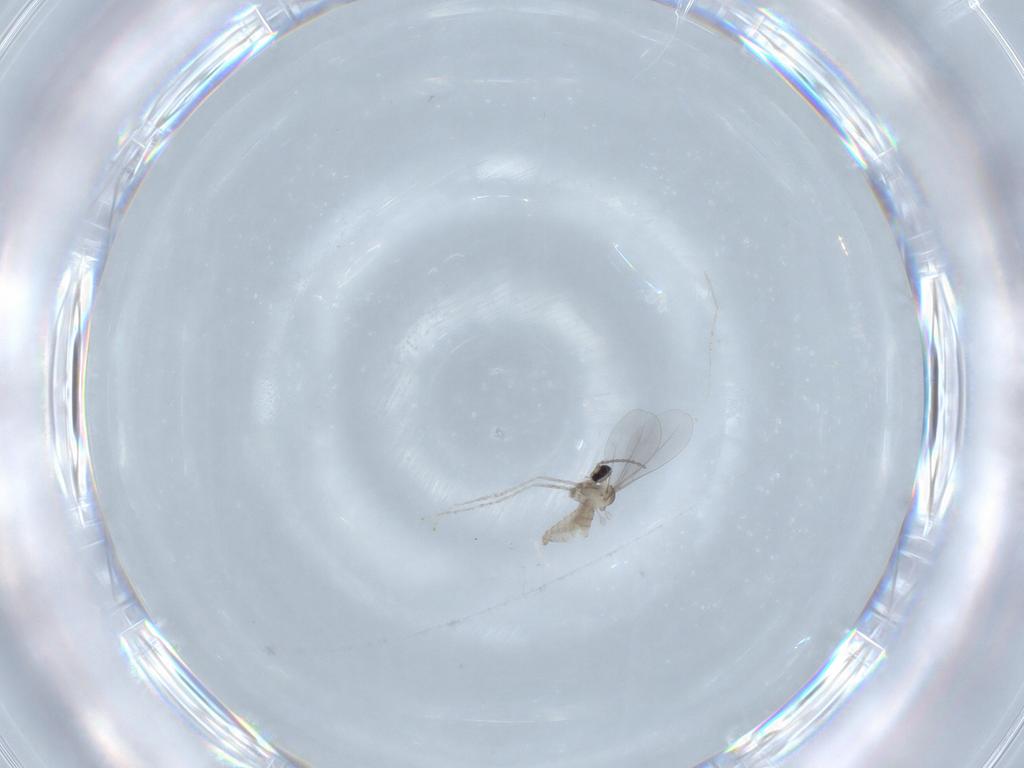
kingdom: Animalia
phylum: Arthropoda
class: Insecta
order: Diptera
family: Cecidomyiidae
